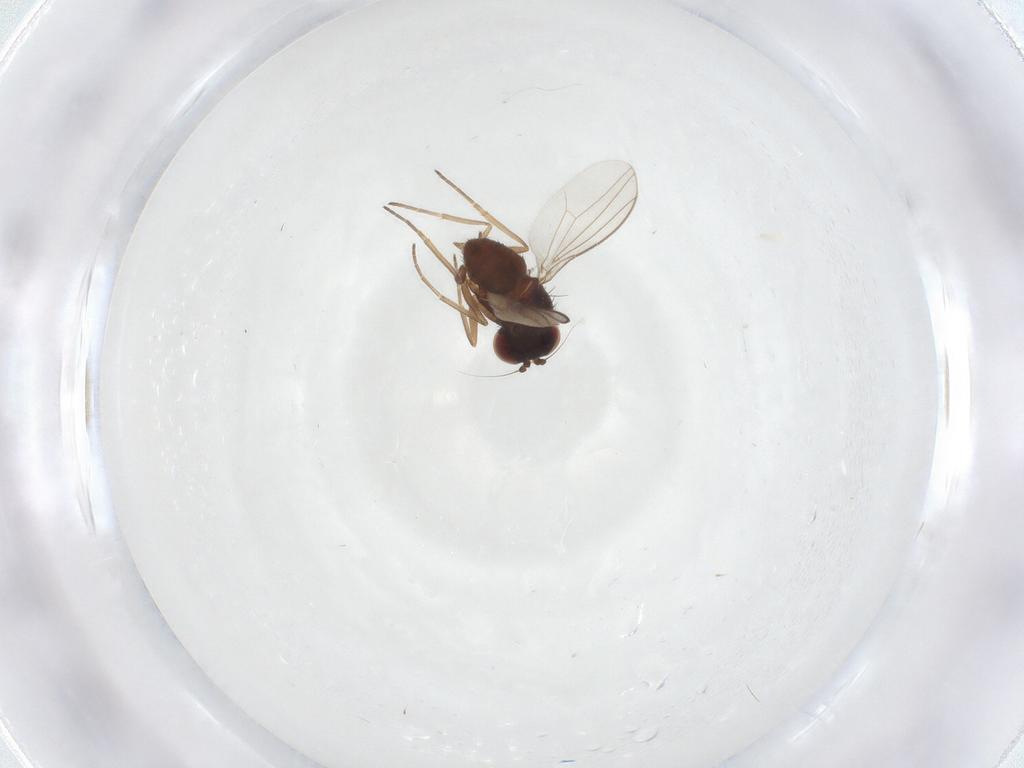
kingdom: Animalia
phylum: Arthropoda
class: Insecta
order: Diptera
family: Dolichopodidae
